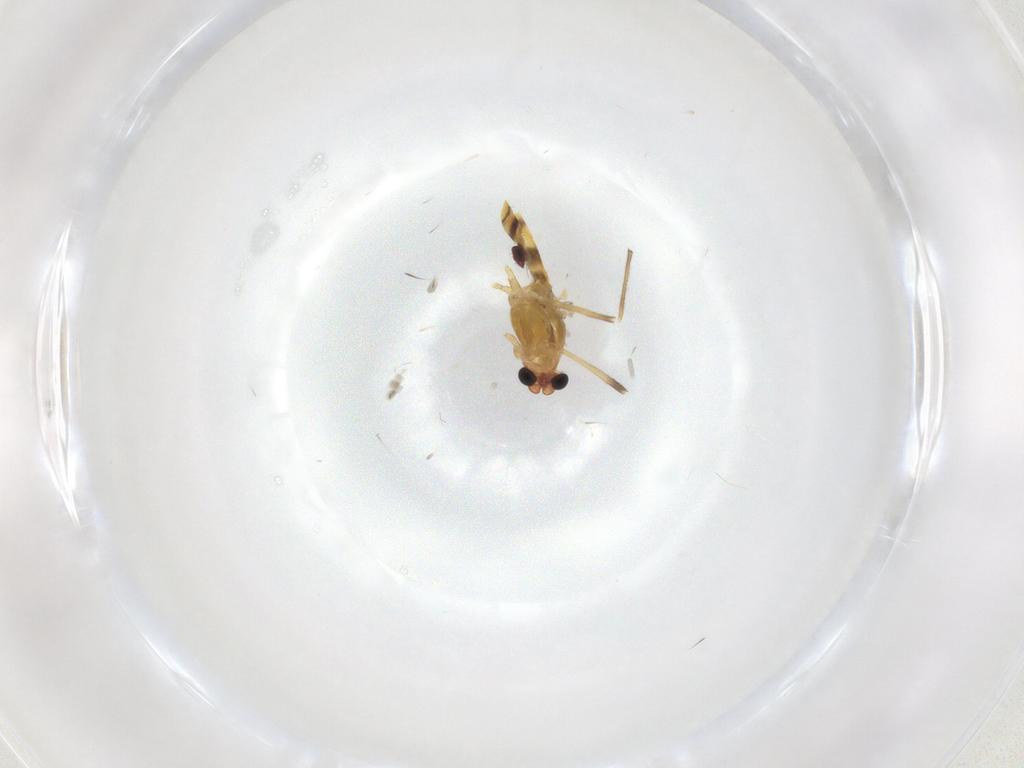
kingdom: Animalia
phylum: Arthropoda
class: Insecta
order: Diptera
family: Chironomidae
